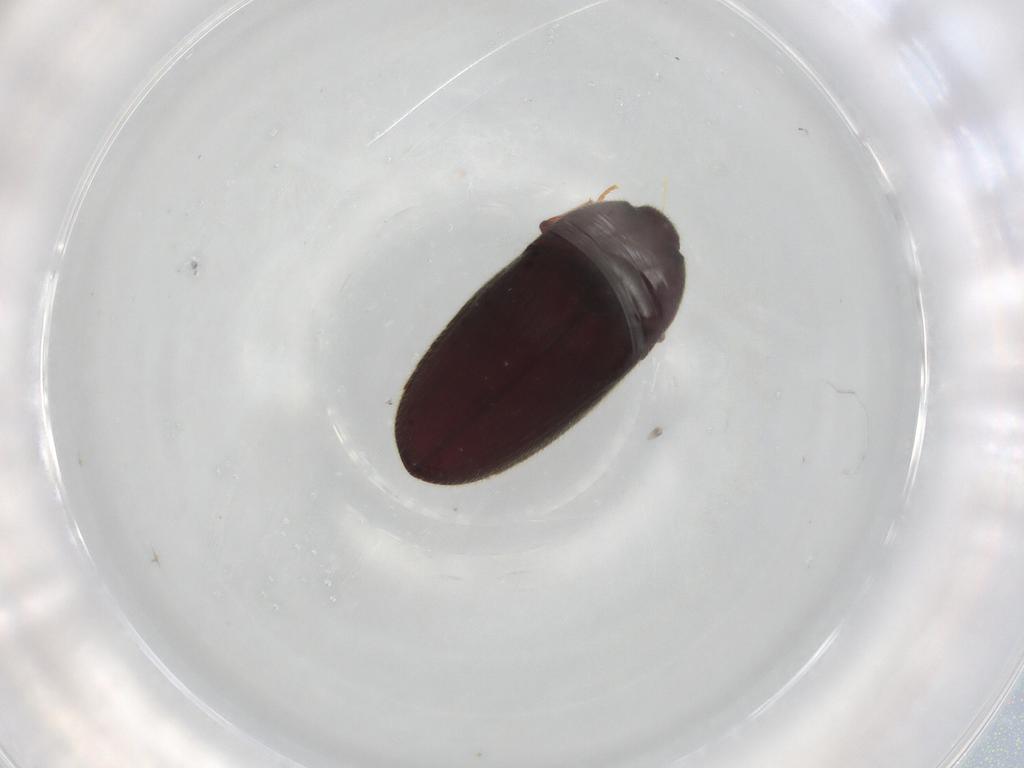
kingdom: Animalia
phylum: Arthropoda
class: Insecta
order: Coleoptera
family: Throscidae
